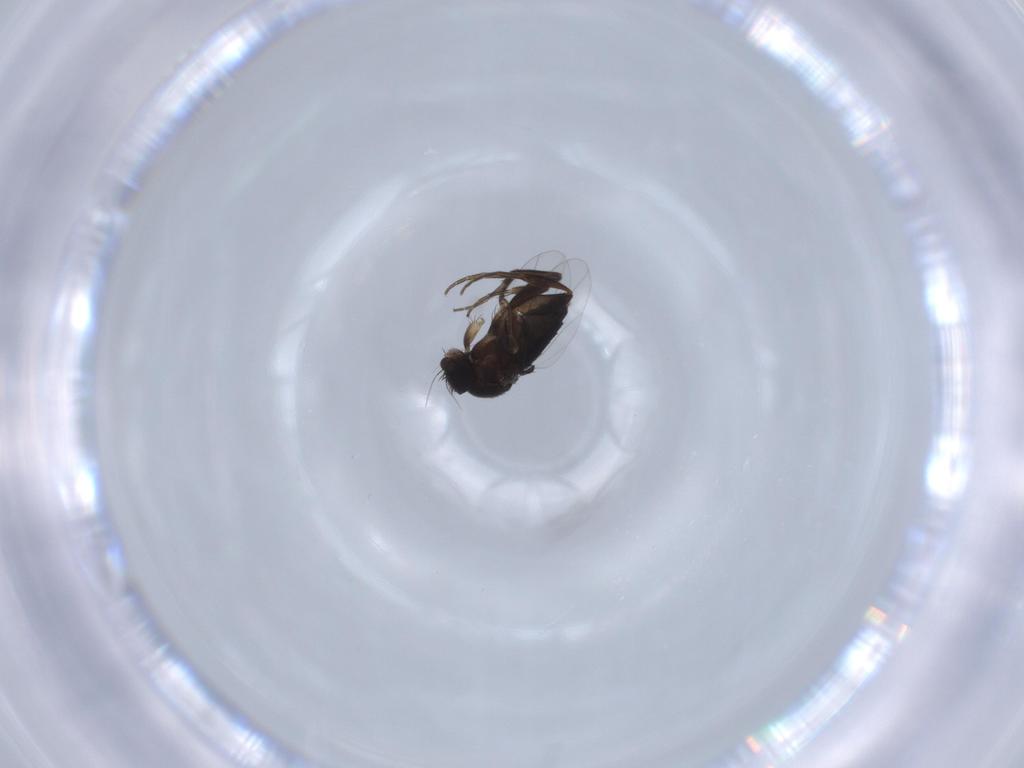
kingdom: Animalia
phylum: Arthropoda
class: Insecta
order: Diptera
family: Phoridae
